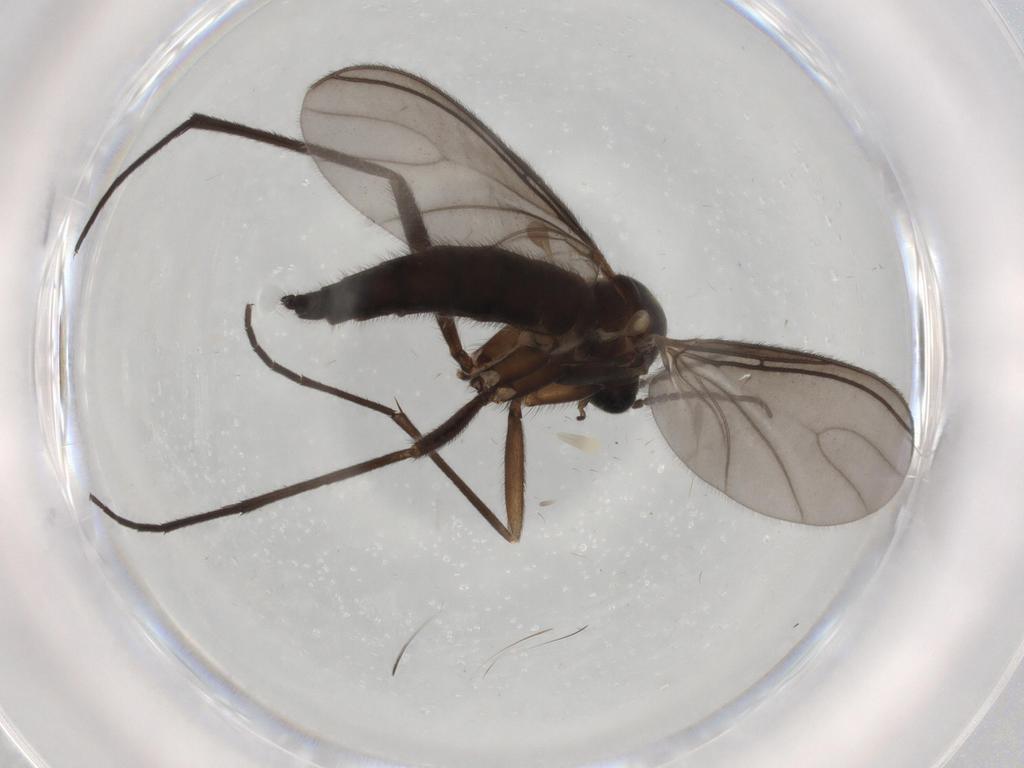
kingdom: Animalia
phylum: Arthropoda
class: Insecta
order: Diptera
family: Sciaridae
